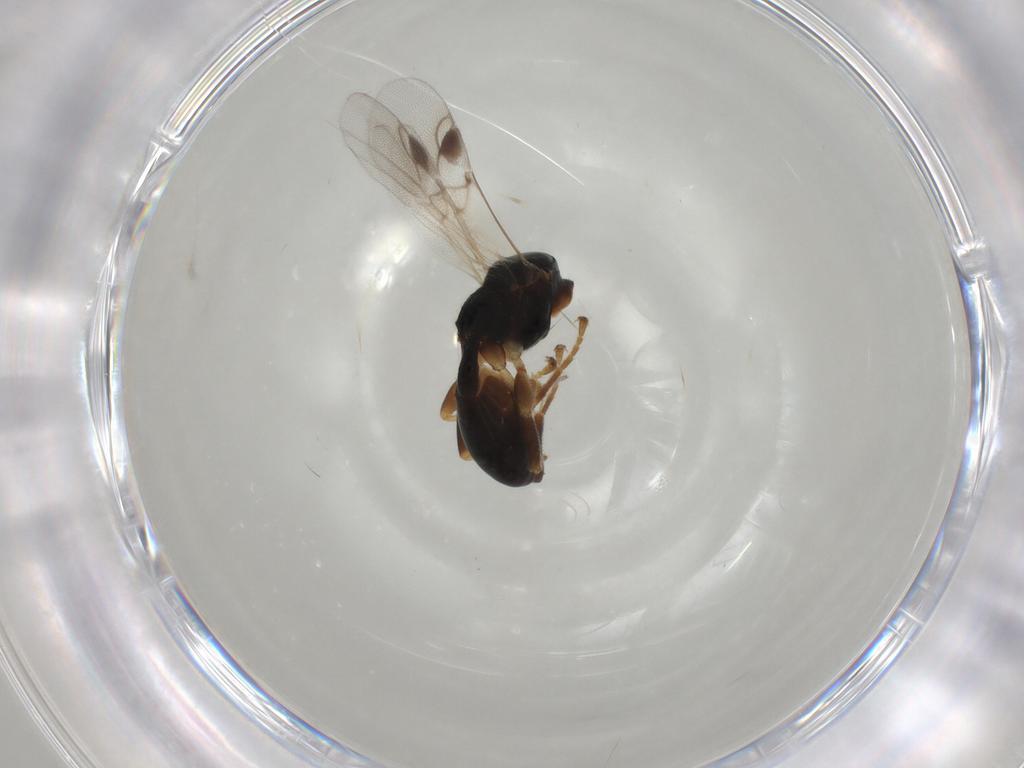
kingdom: Animalia
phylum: Arthropoda
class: Insecta
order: Hymenoptera
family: Braconidae
